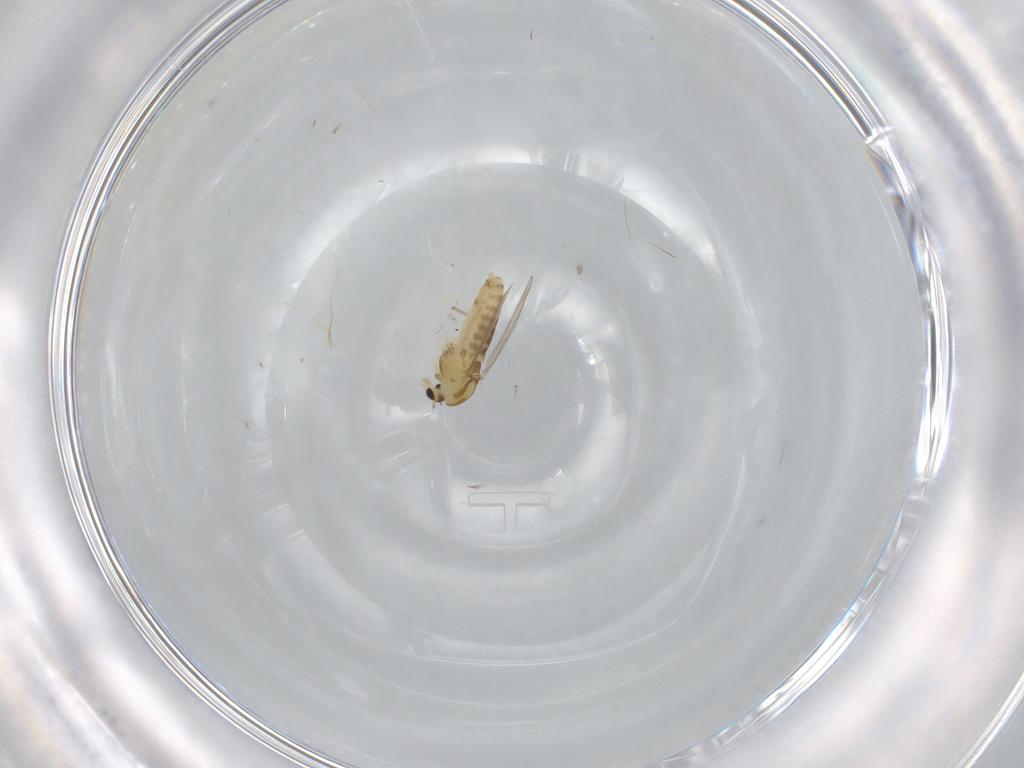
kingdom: Animalia
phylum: Arthropoda
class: Insecta
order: Diptera
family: Chironomidae
